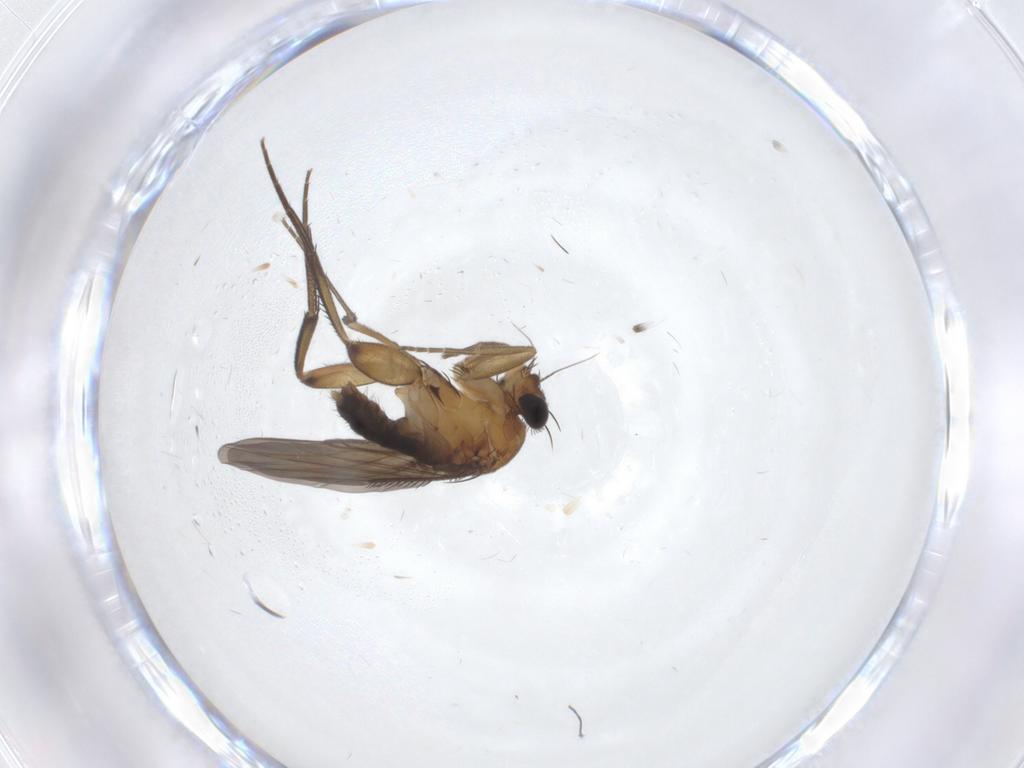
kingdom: Animalia
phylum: Arthropoda
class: Insecta
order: Diptera
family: Phoridae
